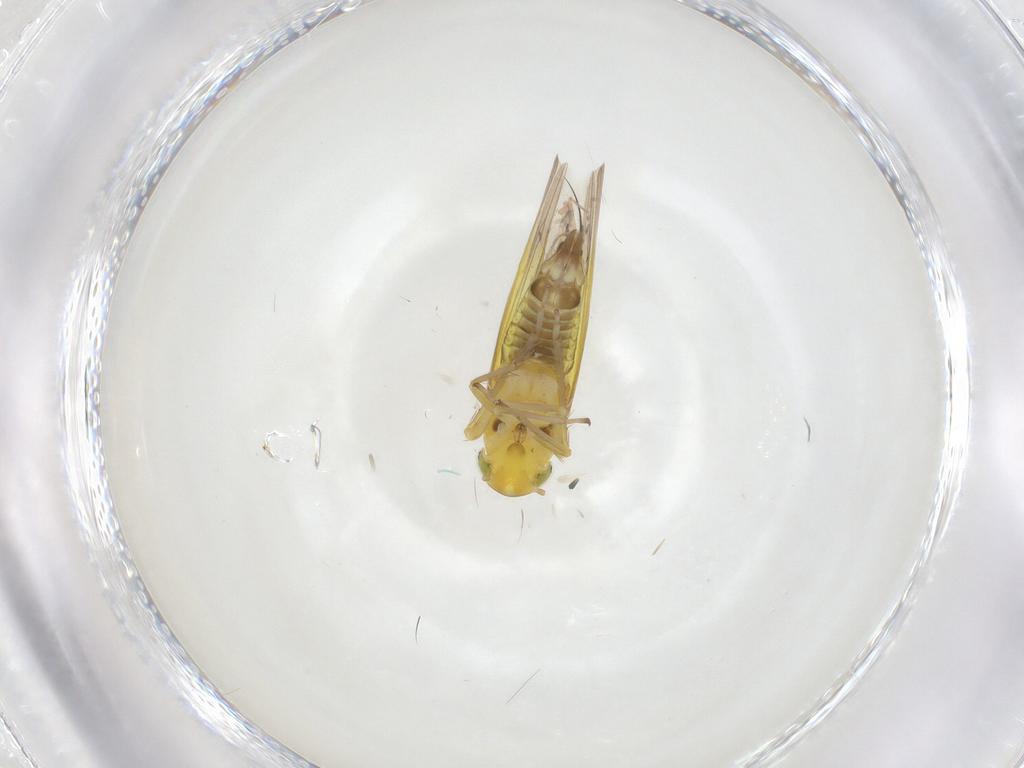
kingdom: Animalia
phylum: Arthropoda
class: Insecta
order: Hemiptera
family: Cicadellidae
